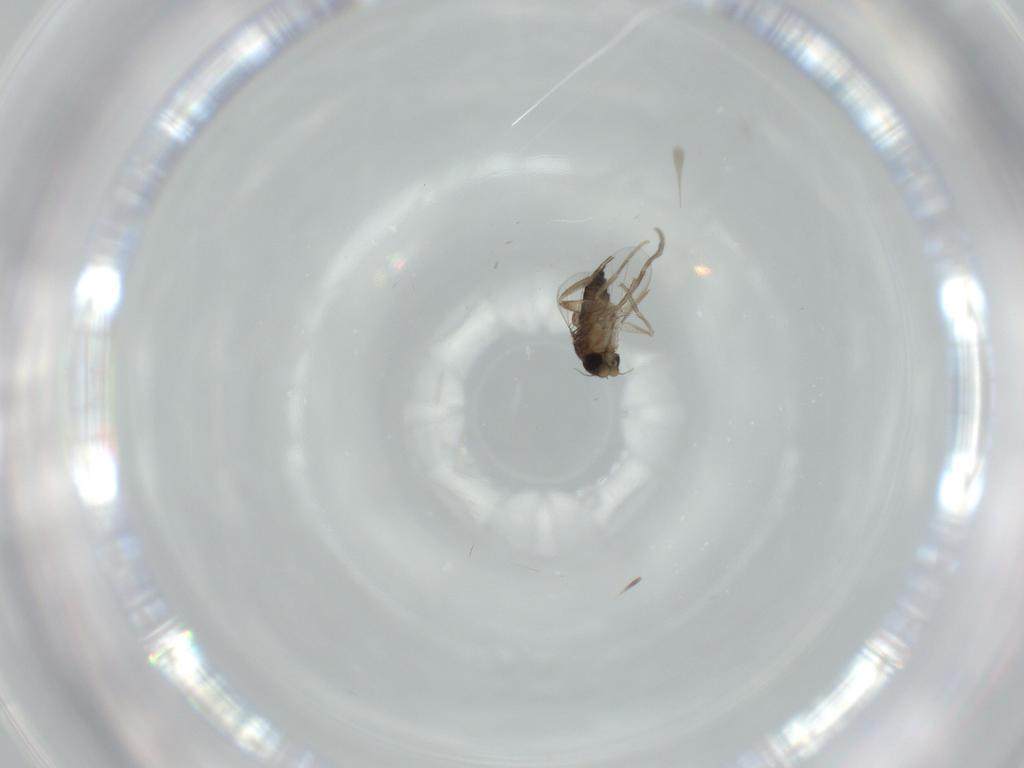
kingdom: Animalia
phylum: Arthropoda
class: Insecta
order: Diptera
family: Phoridae
